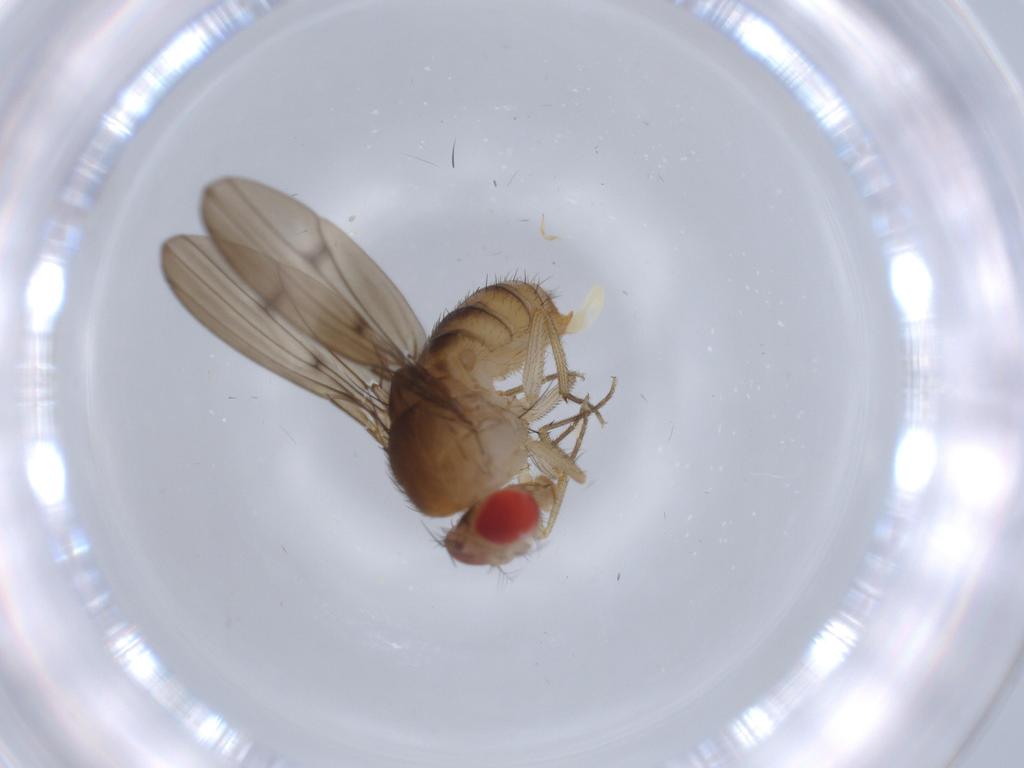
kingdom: Animalia
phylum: Arthropoda
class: Insecta
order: Diptera
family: Drosophilidae
